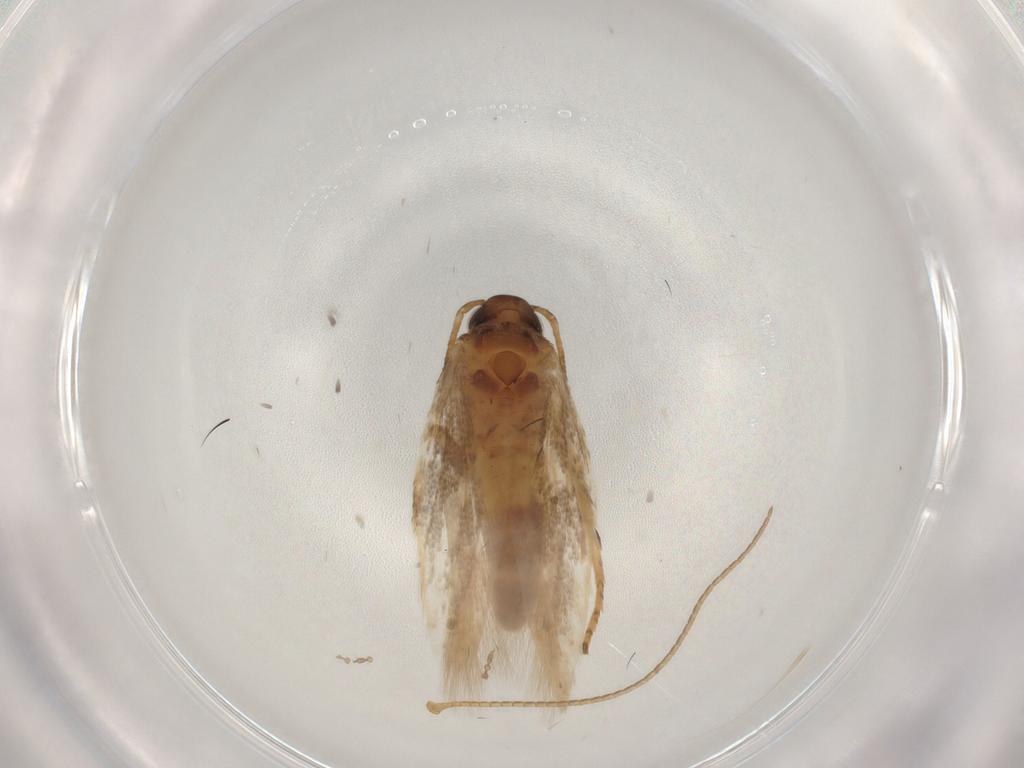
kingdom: Animalia
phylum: Arthropoda
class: Insecta
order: Lepidoptera
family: Gelechiidae
